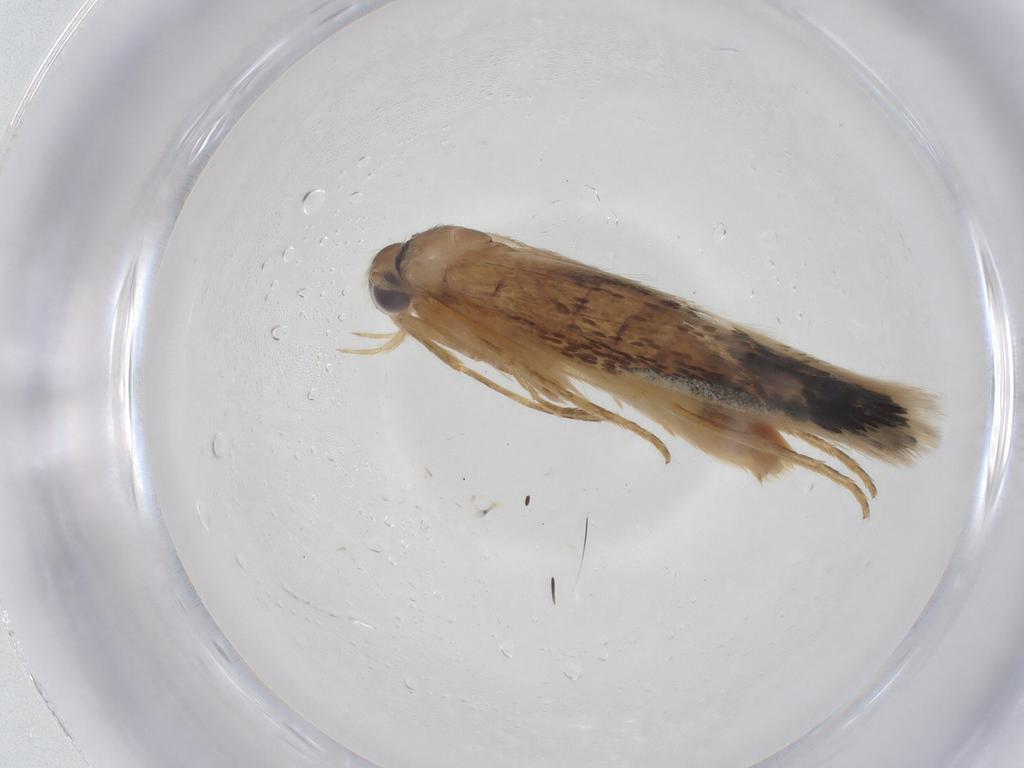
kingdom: Animalia
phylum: Arthropoda
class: Insecta
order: Lepidoptera
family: Scythrididae
